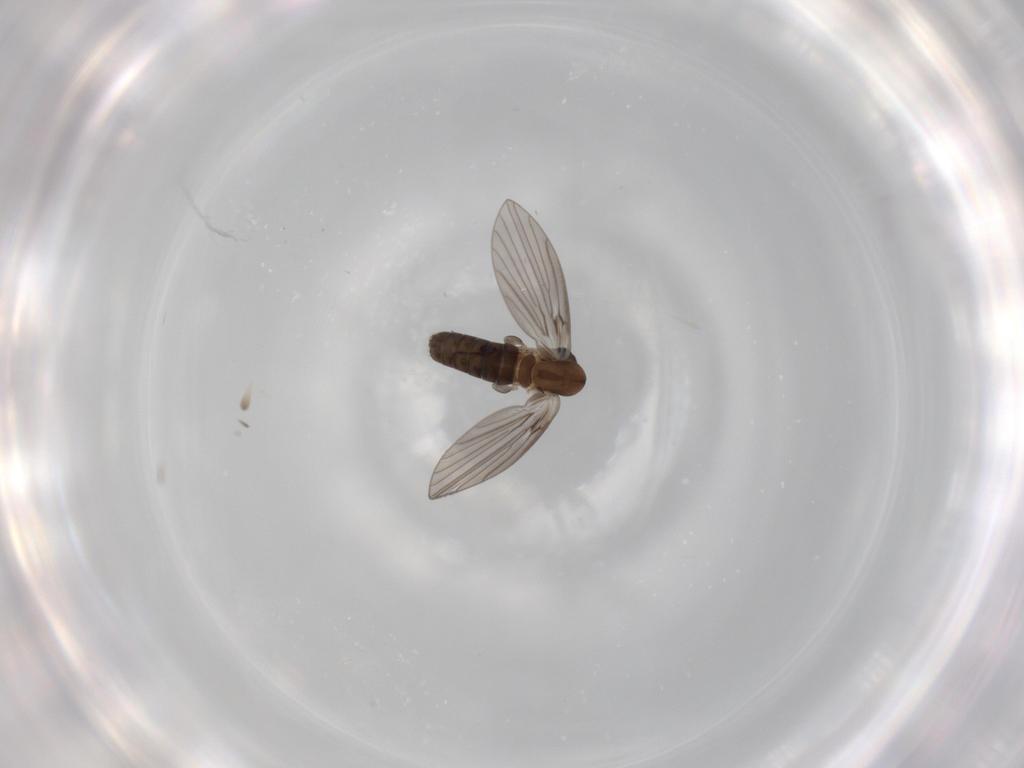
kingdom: Animalia
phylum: Arthropoda
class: Insecta
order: Diptera
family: Psychodidae
